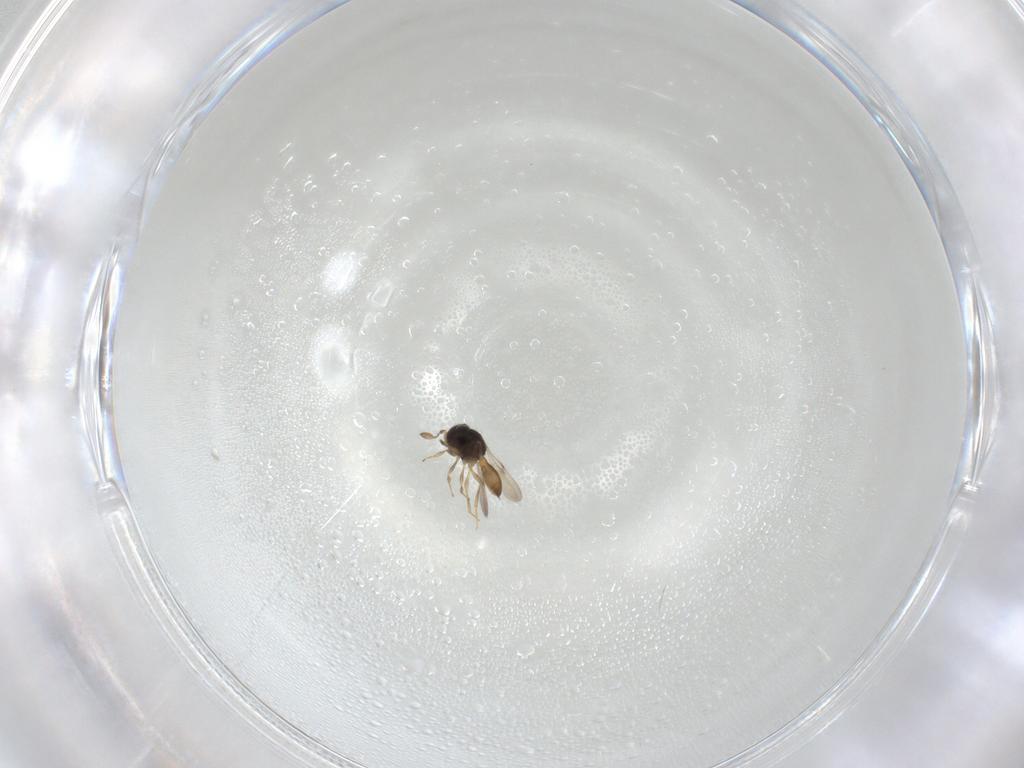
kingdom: Animalia
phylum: Arthropoda
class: Insecta
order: Hymenoptera
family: Scelionidae
